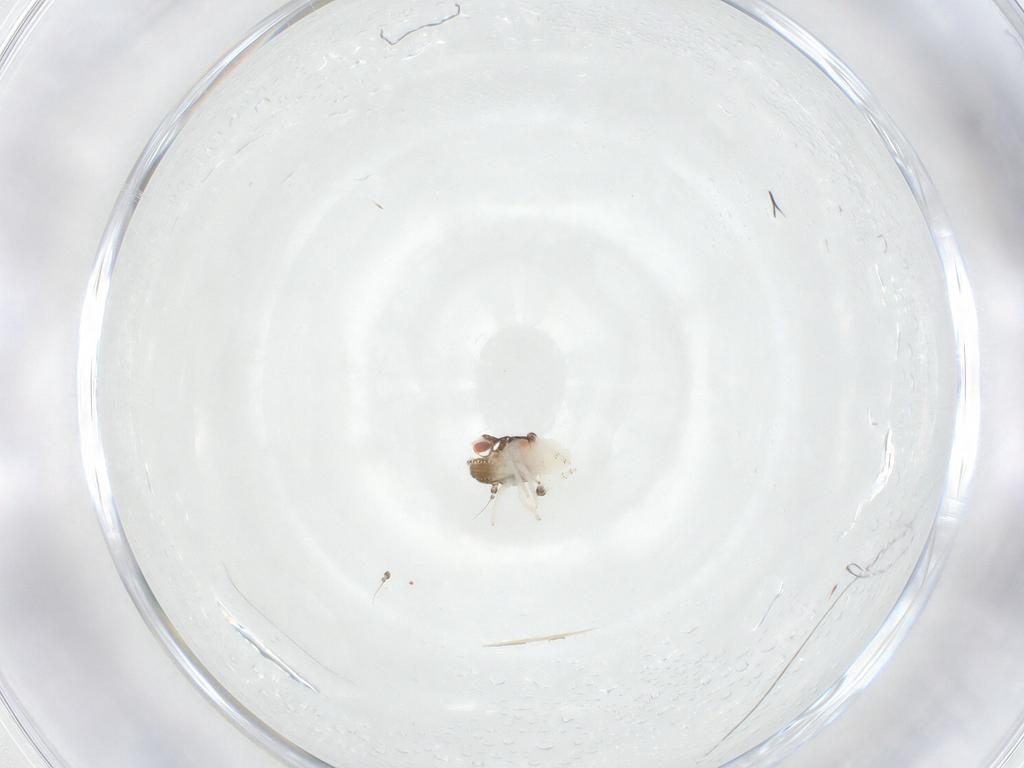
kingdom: Animalia
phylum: Arthropoda
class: Insecta
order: Hemiptera
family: Nogodinidae
